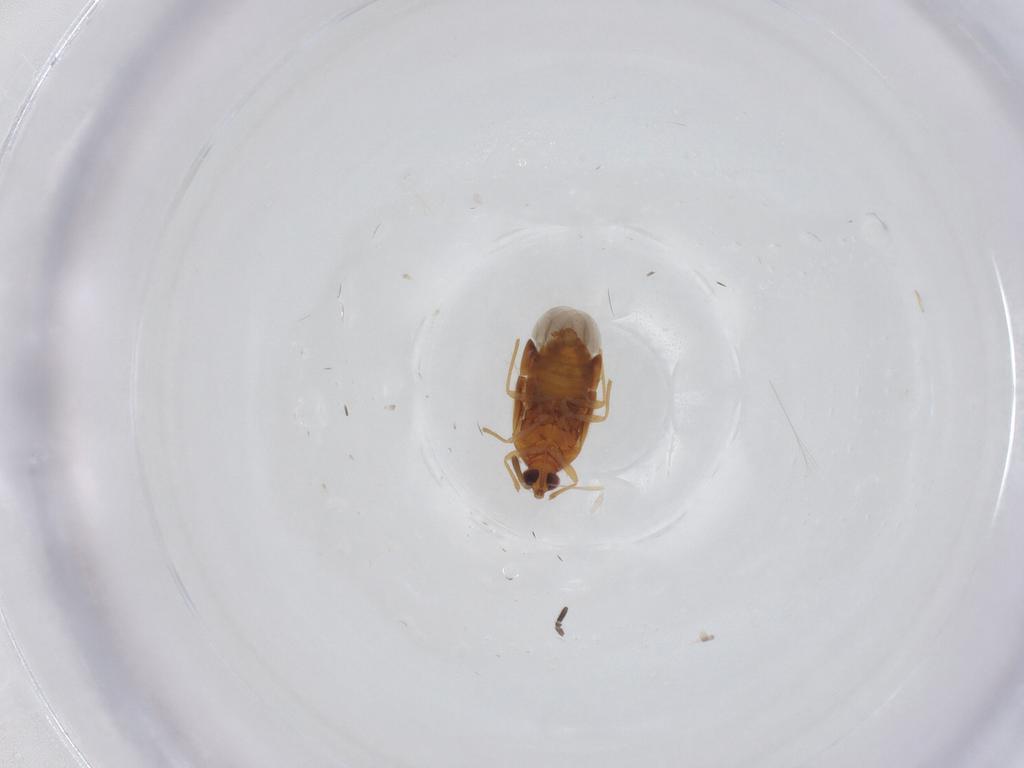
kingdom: Animalia
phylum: Arthropoda
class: Insecta
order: Hemiptera
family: Anthocoridae
